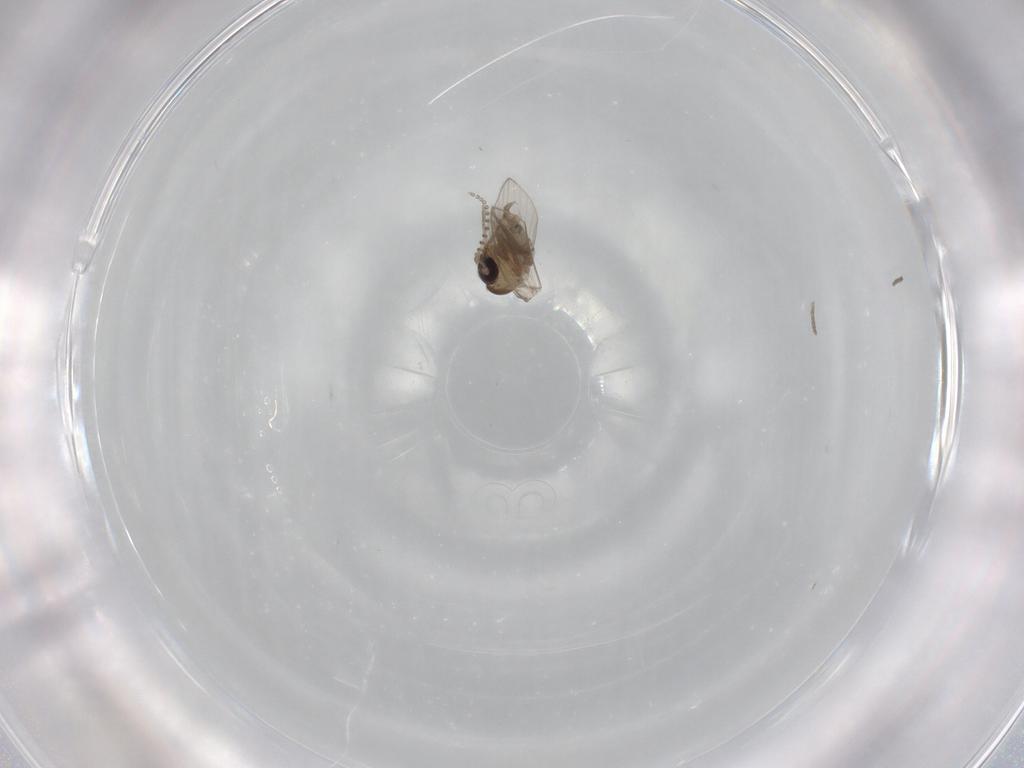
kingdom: Animalia
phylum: Arthropoda
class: Insecta
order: Diptera
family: Psychodidae
